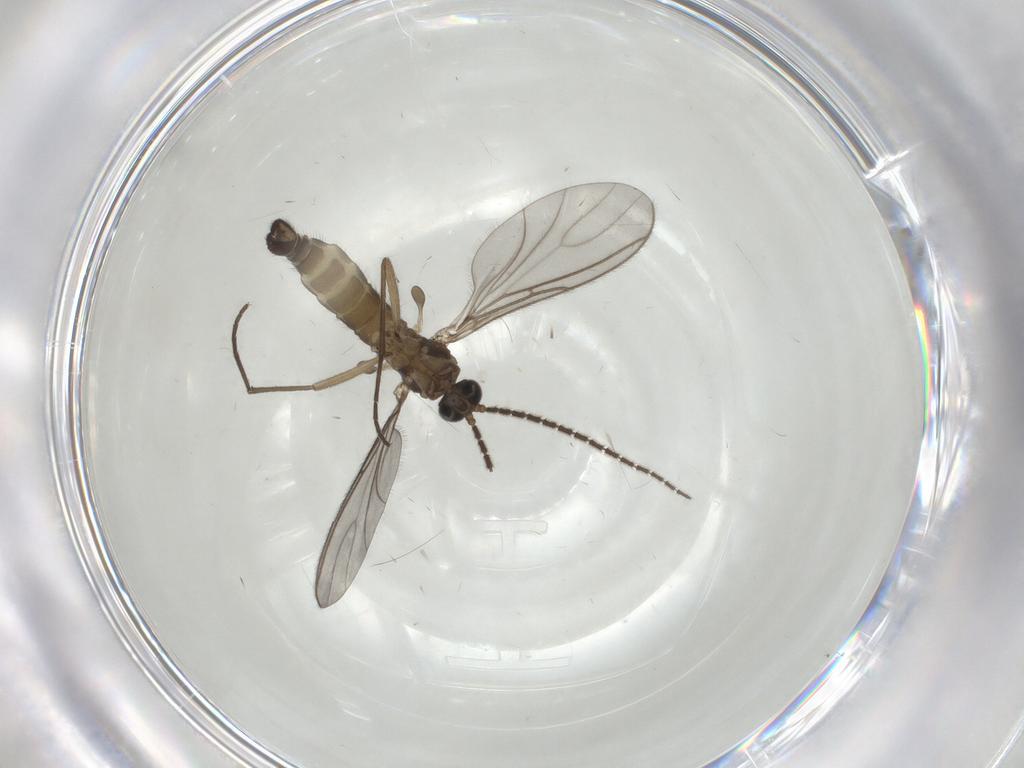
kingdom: Animalia
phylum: Arthropoda
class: Insecta
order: Diptera
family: Sciaridae
